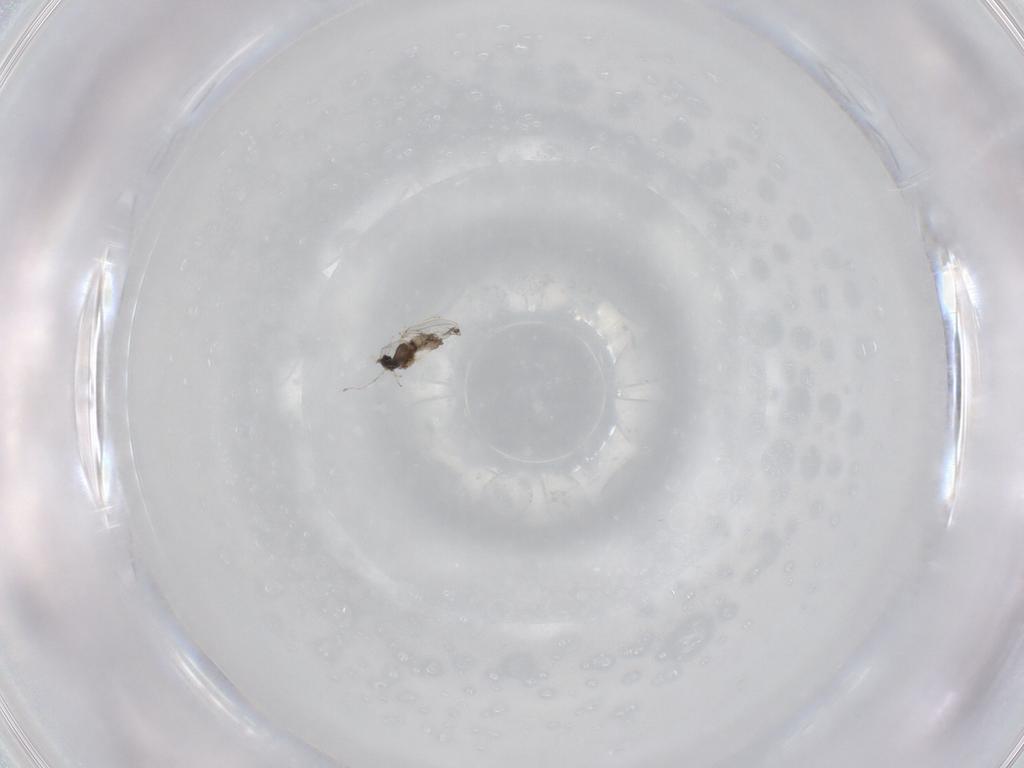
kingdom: Animalia
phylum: Arthropoda
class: Insecta
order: Diptera
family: Cecidomyiidae
